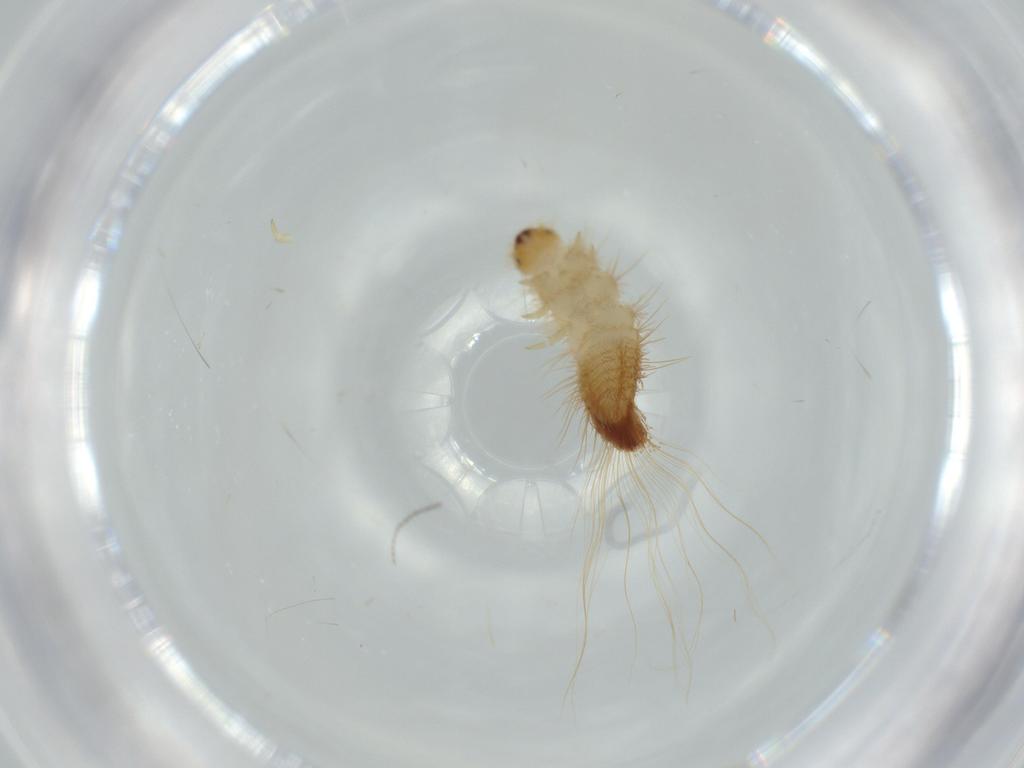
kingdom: Animalia
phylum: Arthropoda
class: Insecta
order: Coleoptera
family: Dermestidae
